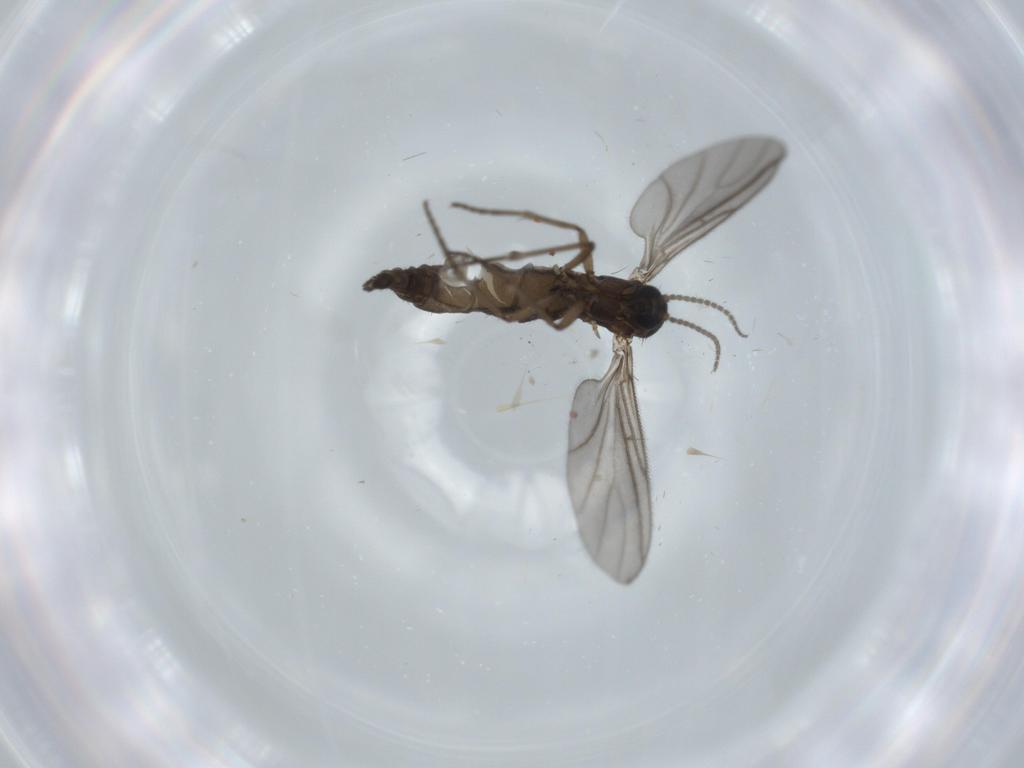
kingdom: Animalia
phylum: Arthropoda
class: Insecta
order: Diptera
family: Sciaridae
